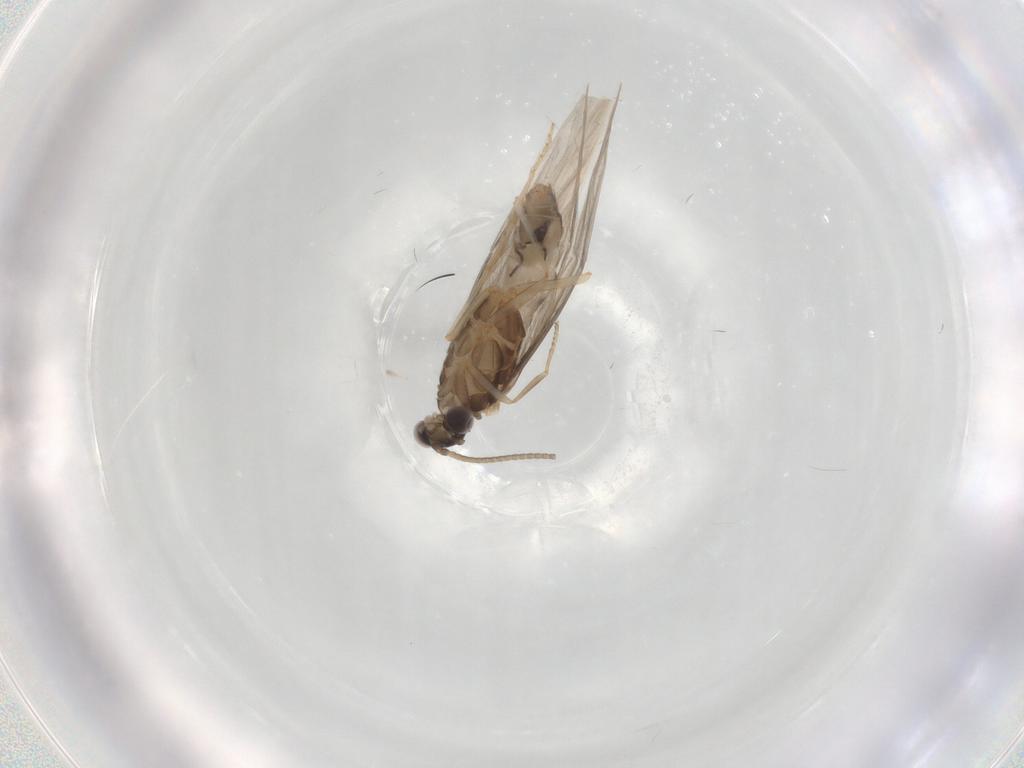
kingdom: Animalia
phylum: Arthropoda
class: Insecta
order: Trichoptera
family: Hydroptilidae
